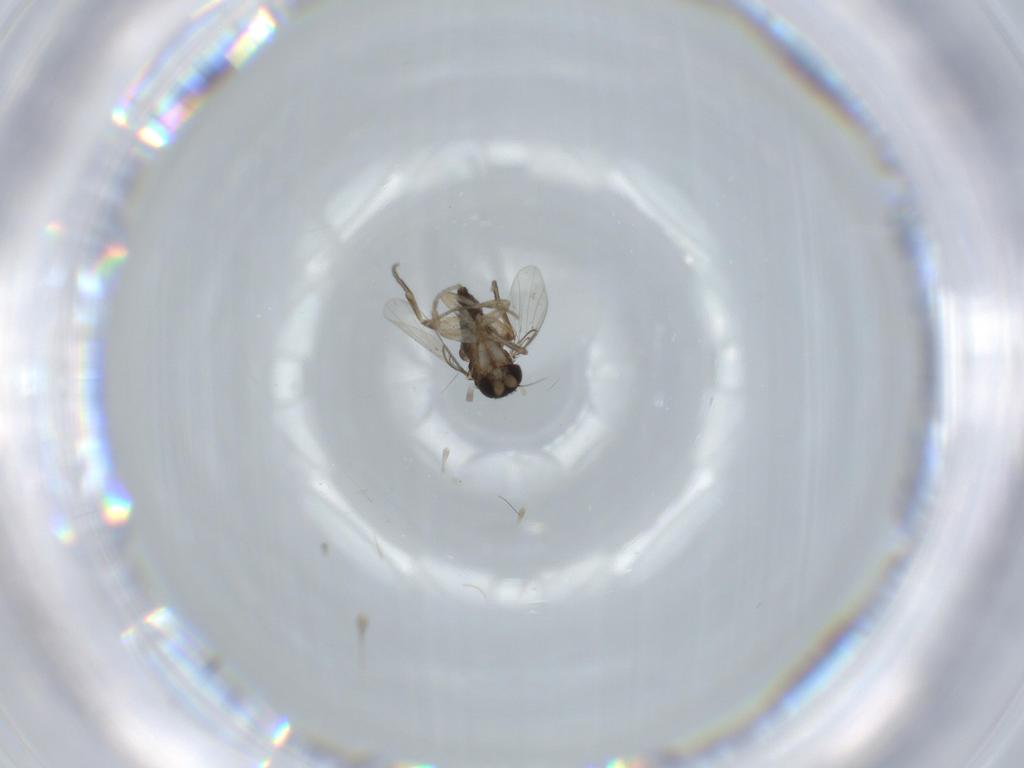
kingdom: Animalia
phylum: Arthropoda
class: Insecta
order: Diptera
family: Phoridae
